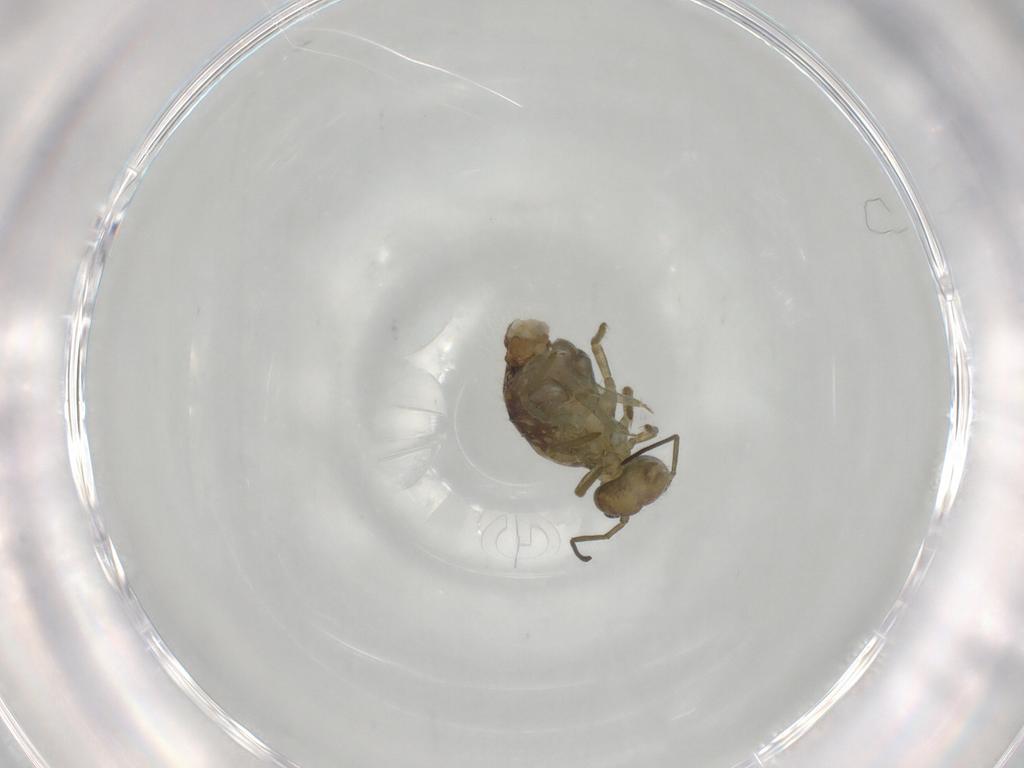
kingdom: Animalia
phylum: Arthropoda
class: Collembola
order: Symphypleona
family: Sminthuridae
